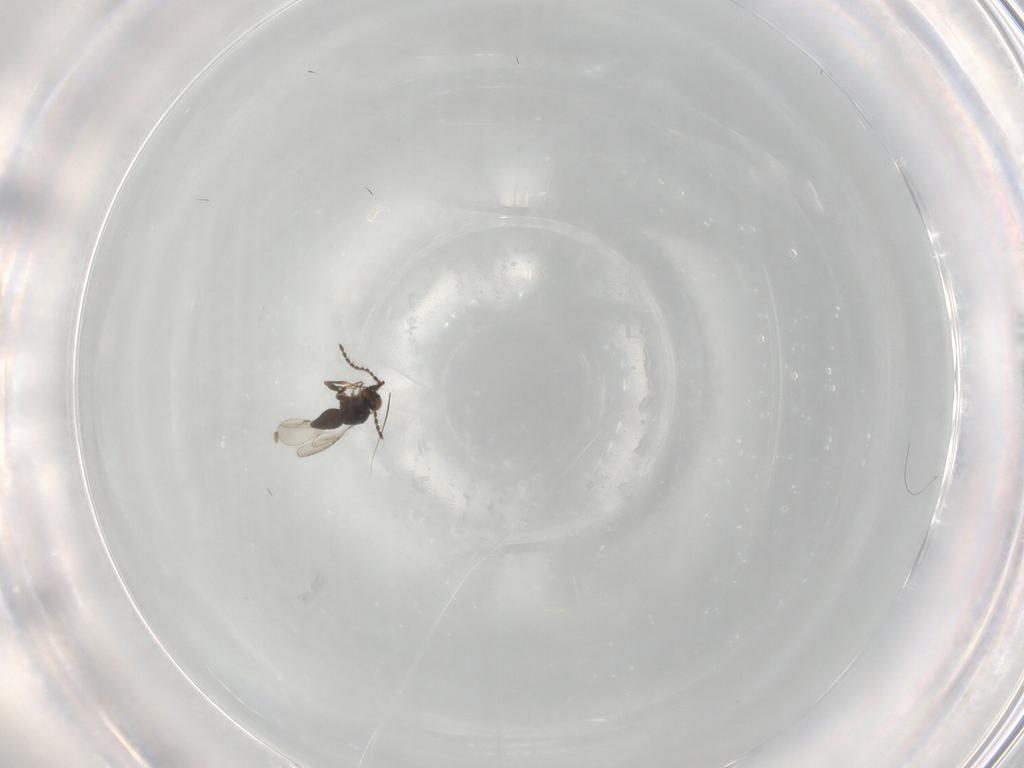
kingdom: Animalia
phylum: Arthropoda
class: Insecta
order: Hymenoptera
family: Ceraphronidae
